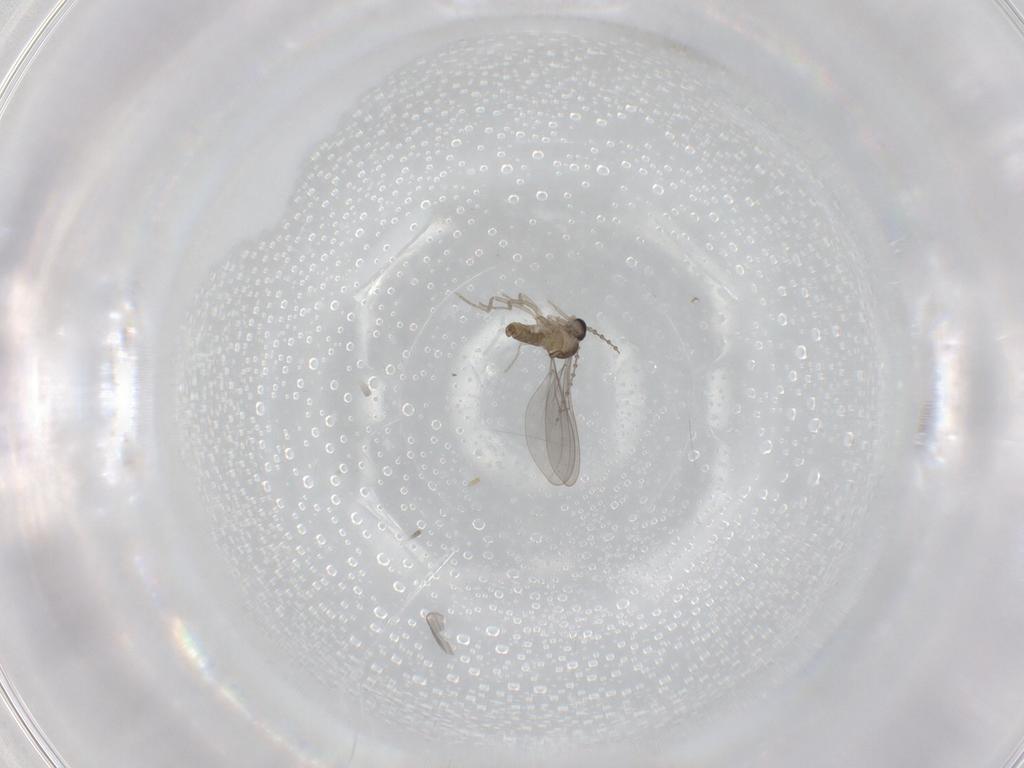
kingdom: Animalia
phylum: Arthropoda
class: Insecta
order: Diptera
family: Cecidomyiidae
